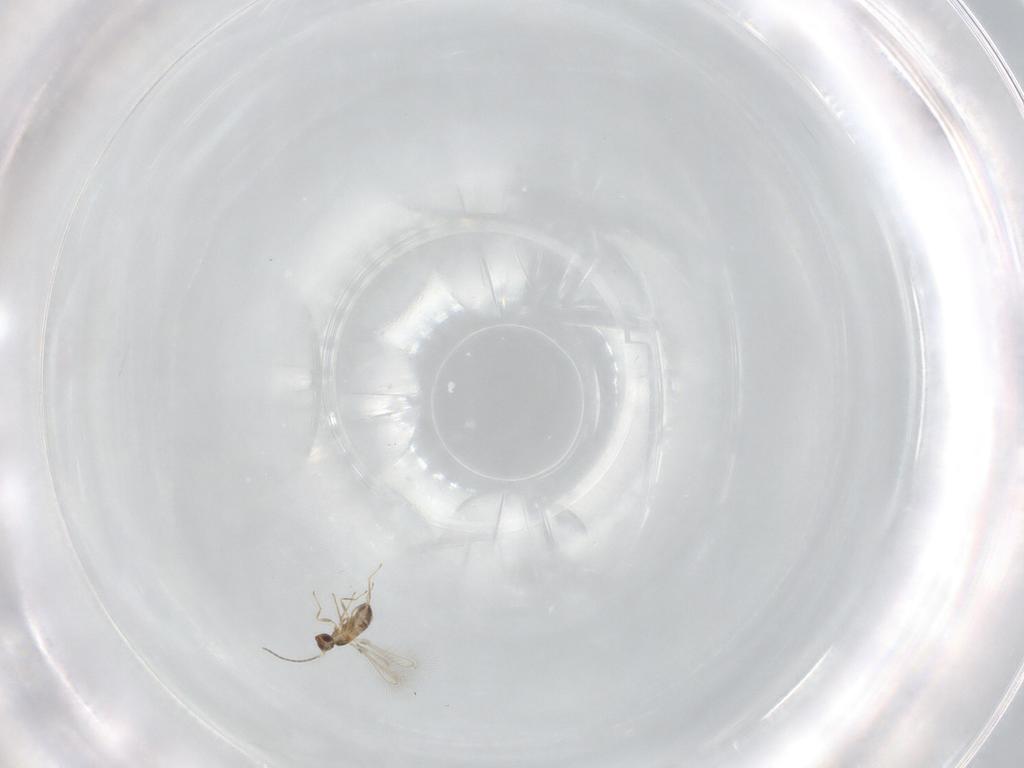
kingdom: Animalia
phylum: Arthropoda
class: Insecta
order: Hymenoptera
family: Mymaridae
